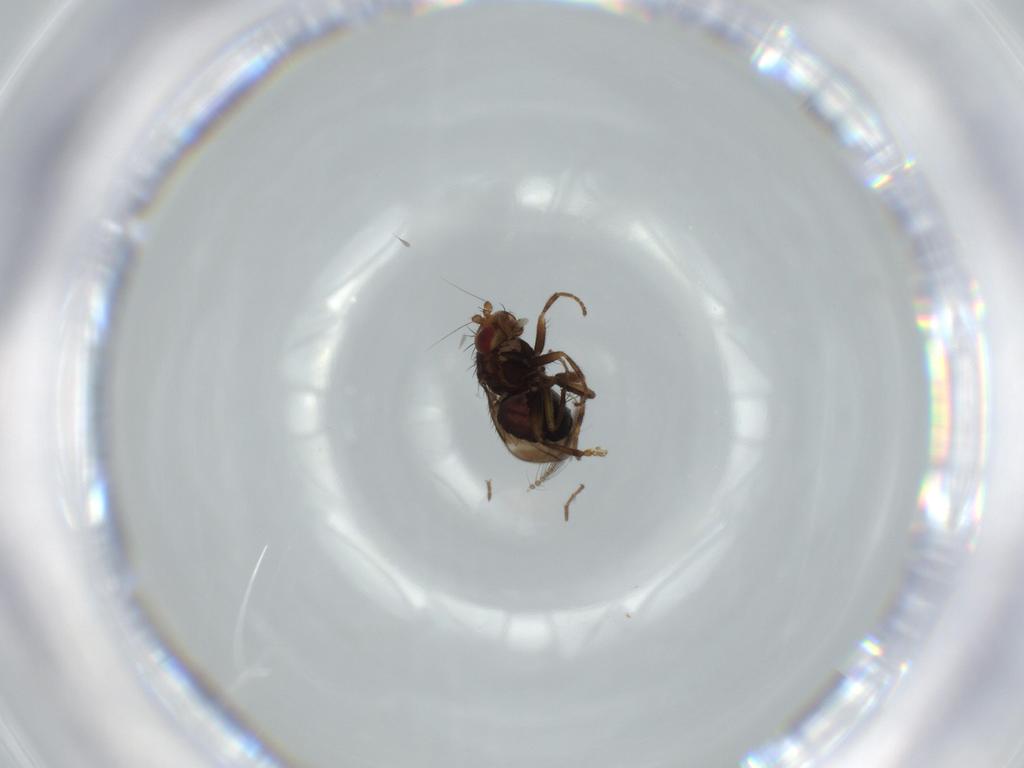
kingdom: Animalia
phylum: Arthropoda
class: Insecta
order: Diptera
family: Ceratopogonidae
